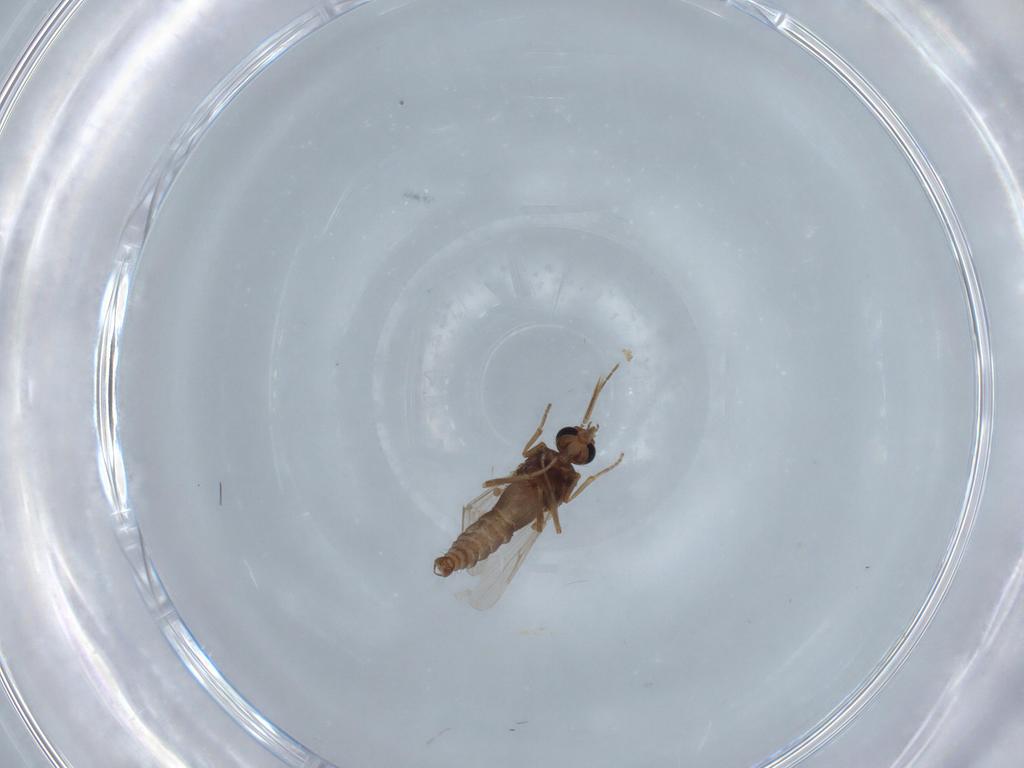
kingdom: Animalia
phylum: Arthropoda
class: Insecta
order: Diptera
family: Ceratopogonidae
